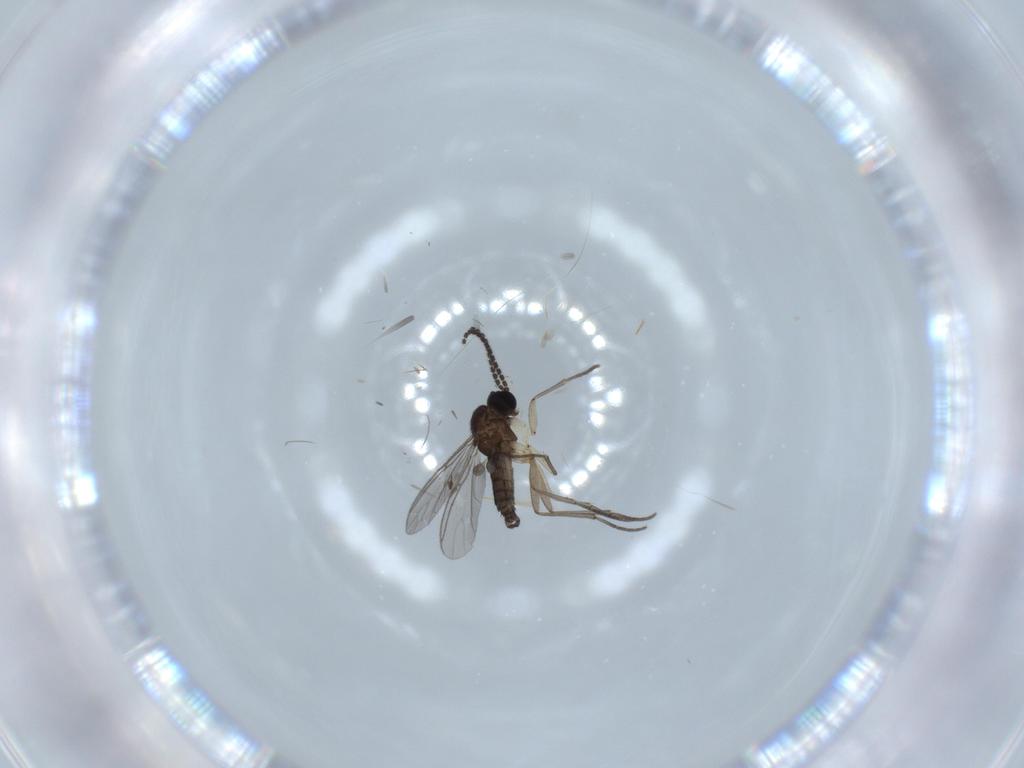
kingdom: Animalia
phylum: Arthropoda
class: Insecta
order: Diptera
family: Sciaridae
